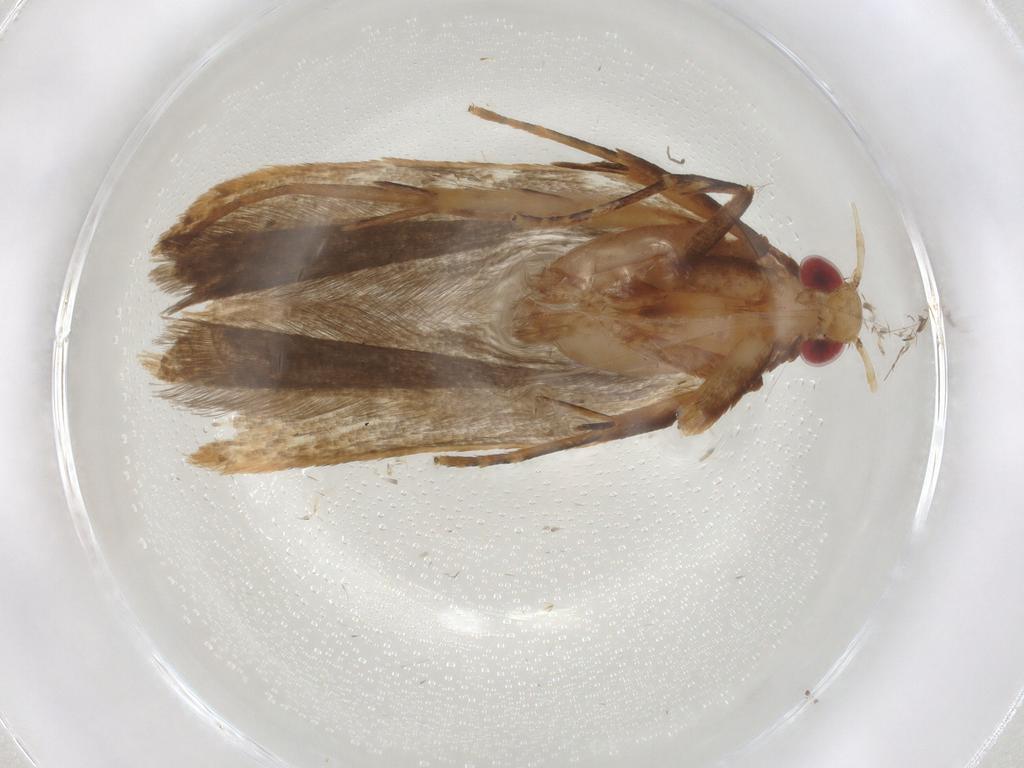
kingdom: Animalia
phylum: Arthropoda
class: Insecta
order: Lepidoptera
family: Depressariidae
